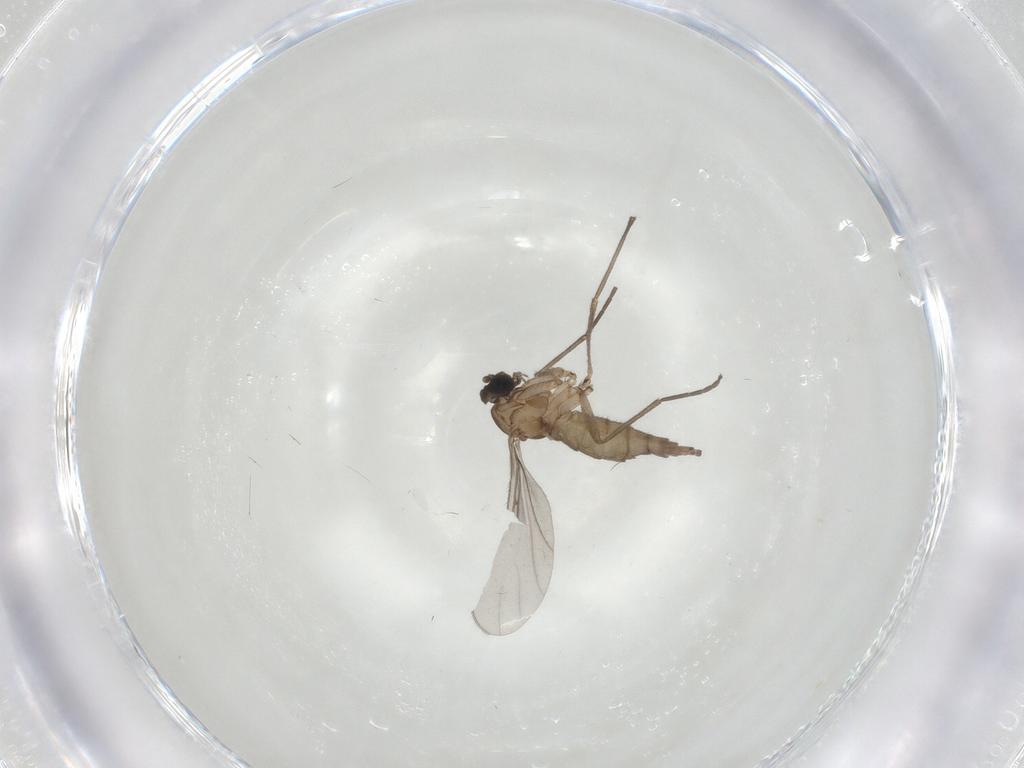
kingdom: Animalia
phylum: Arthropoda
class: Insecta
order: Diptera
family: Sciaridae
